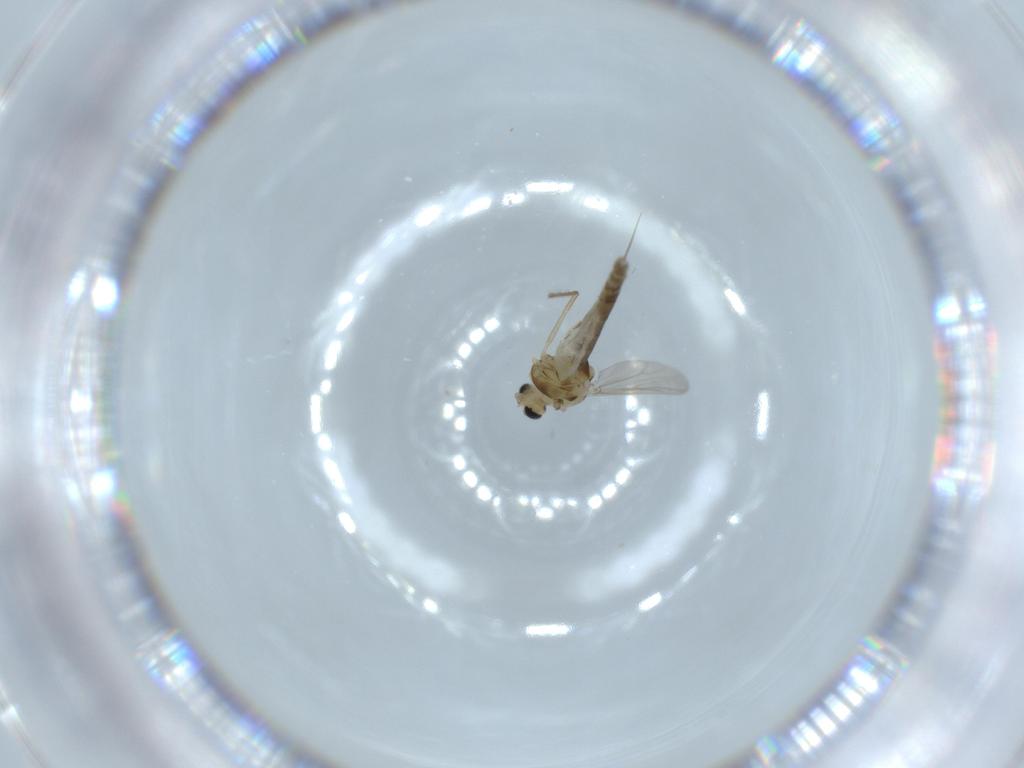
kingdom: Animalia
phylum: Arthropoda
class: Insecta
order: Diptera
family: Chironomidae
